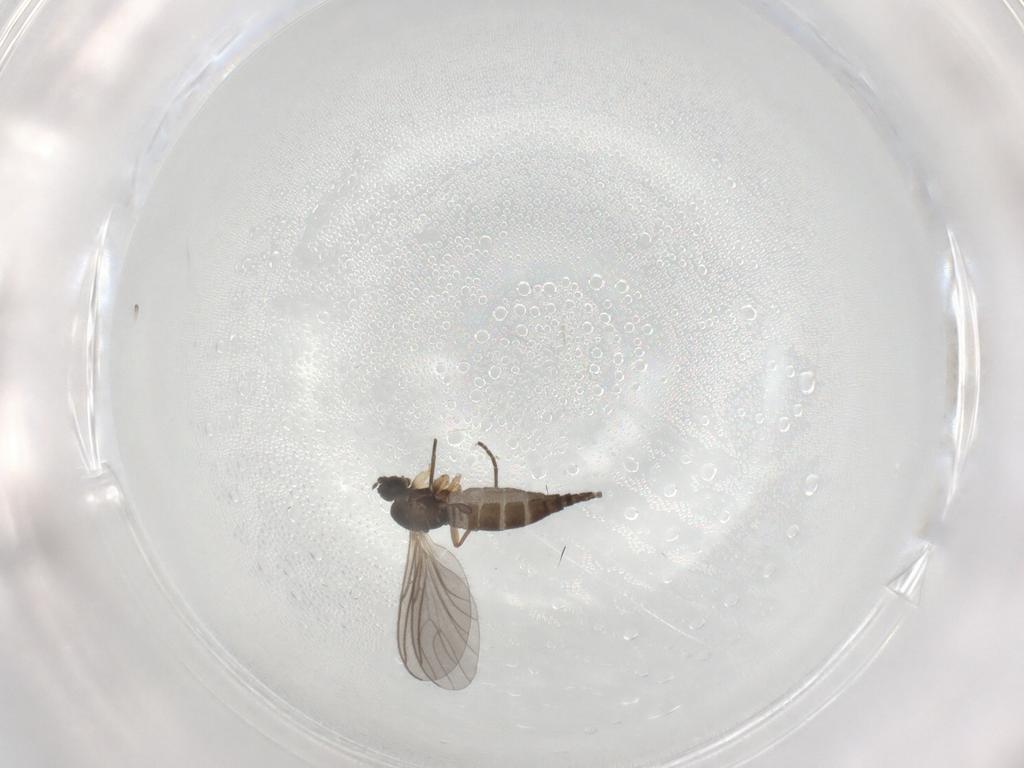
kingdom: Animalia
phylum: Arthropoda
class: Insecta
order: Diptera
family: Sciaridae
